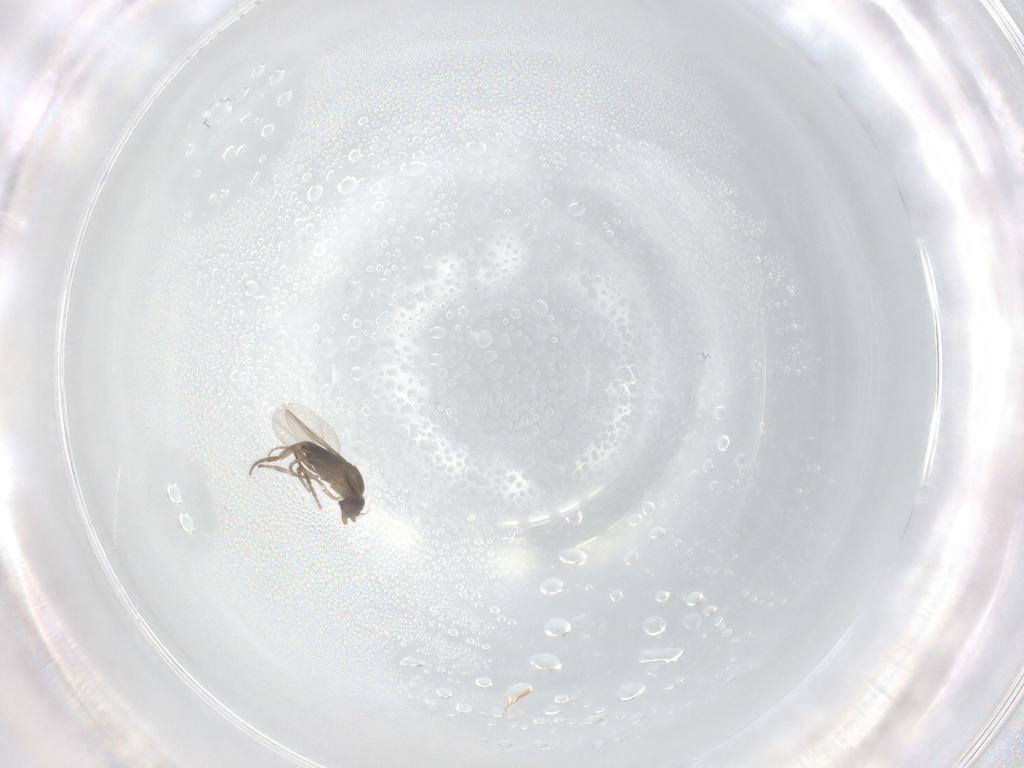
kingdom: Animalia
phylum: Arthropoda
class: Insecta
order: Diptera
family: Phoridae
